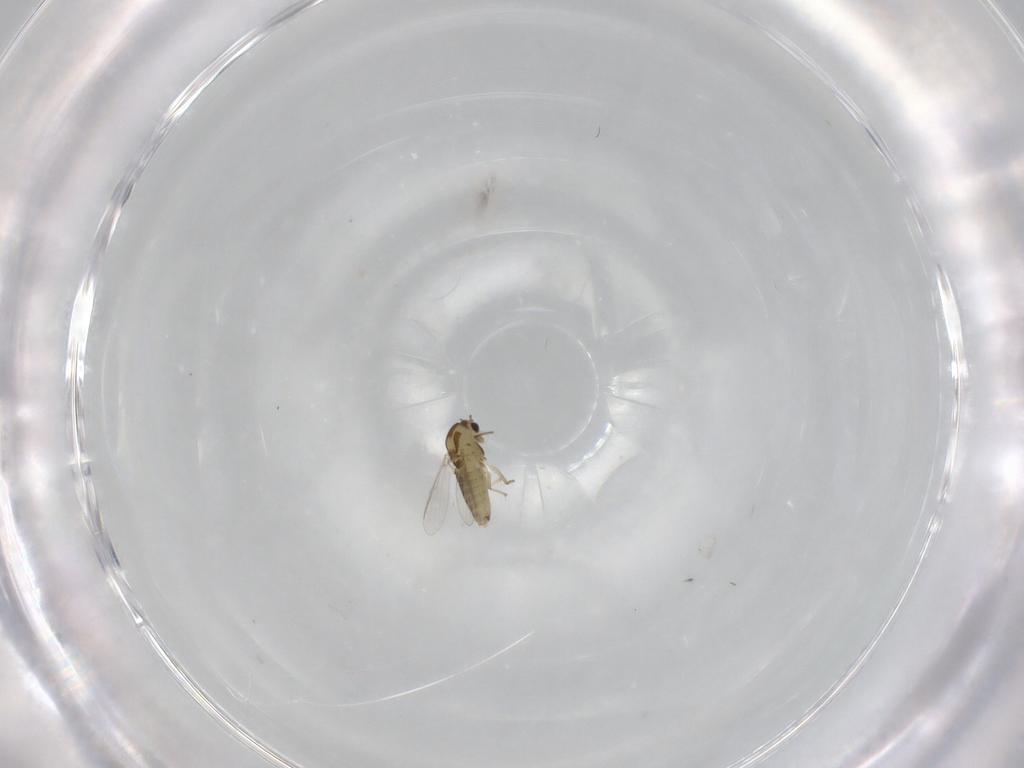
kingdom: Animalia
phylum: Arthropoda
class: Insecta
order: Diptera
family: Chironomidae
